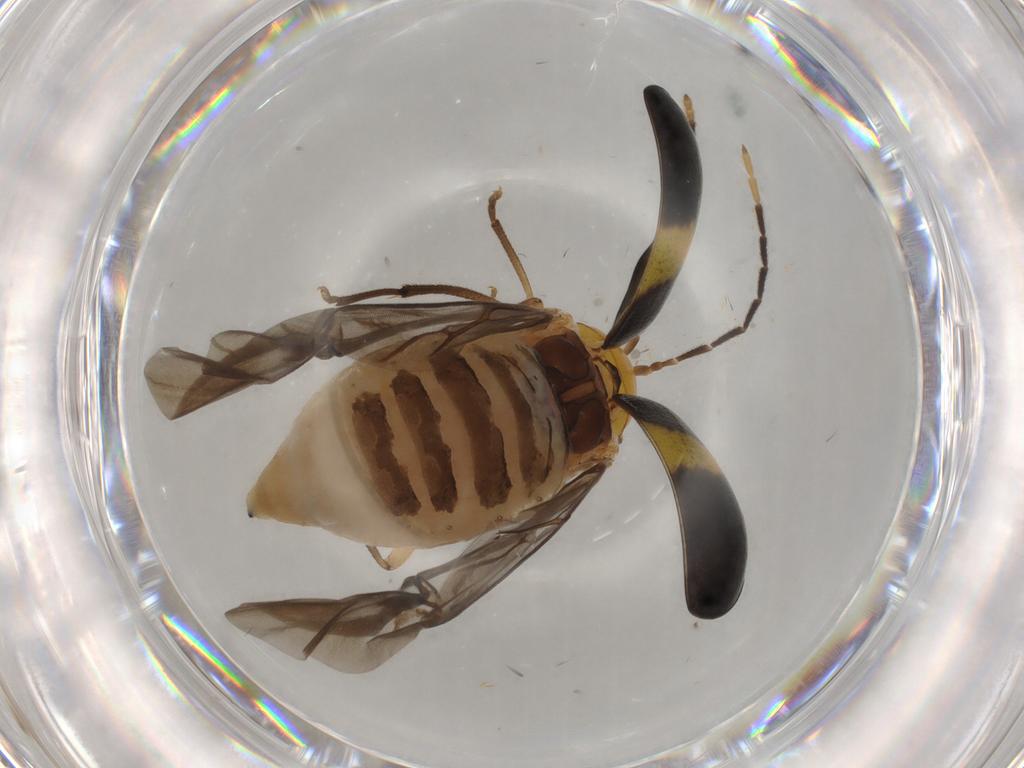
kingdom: Animalia
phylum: Arthropoda
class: Insecta
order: Coleoptera
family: Chrysomelidae
